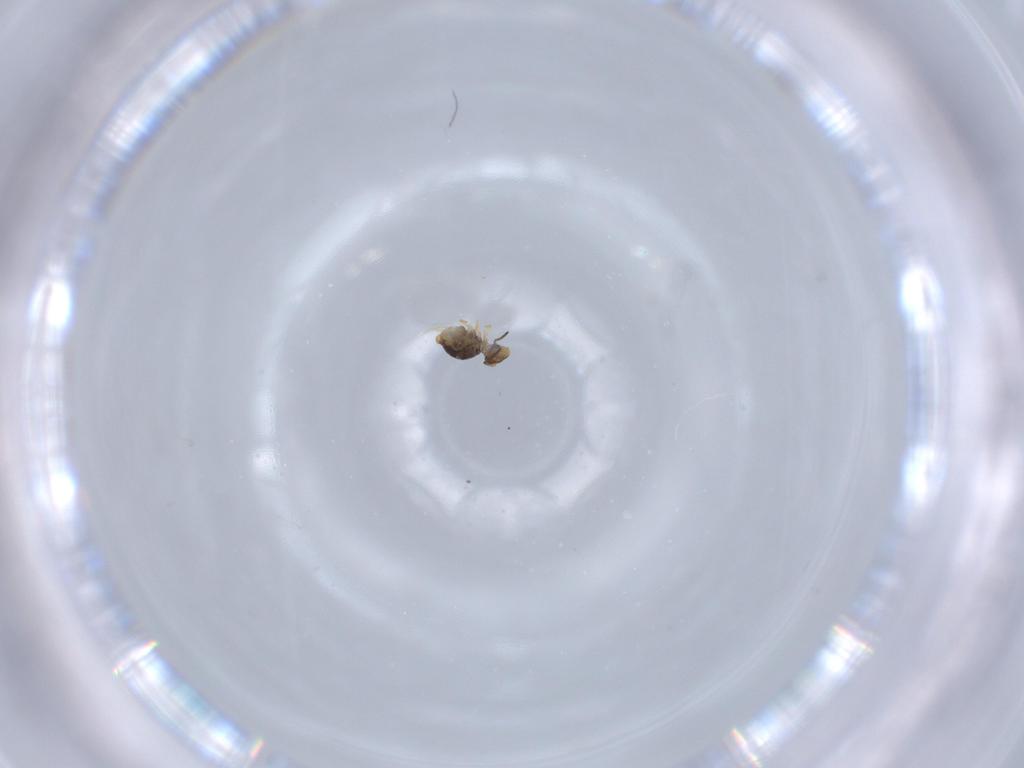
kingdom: Animalia
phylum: Arthropoda
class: Collembola
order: Symphypleona
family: Katiannidae
